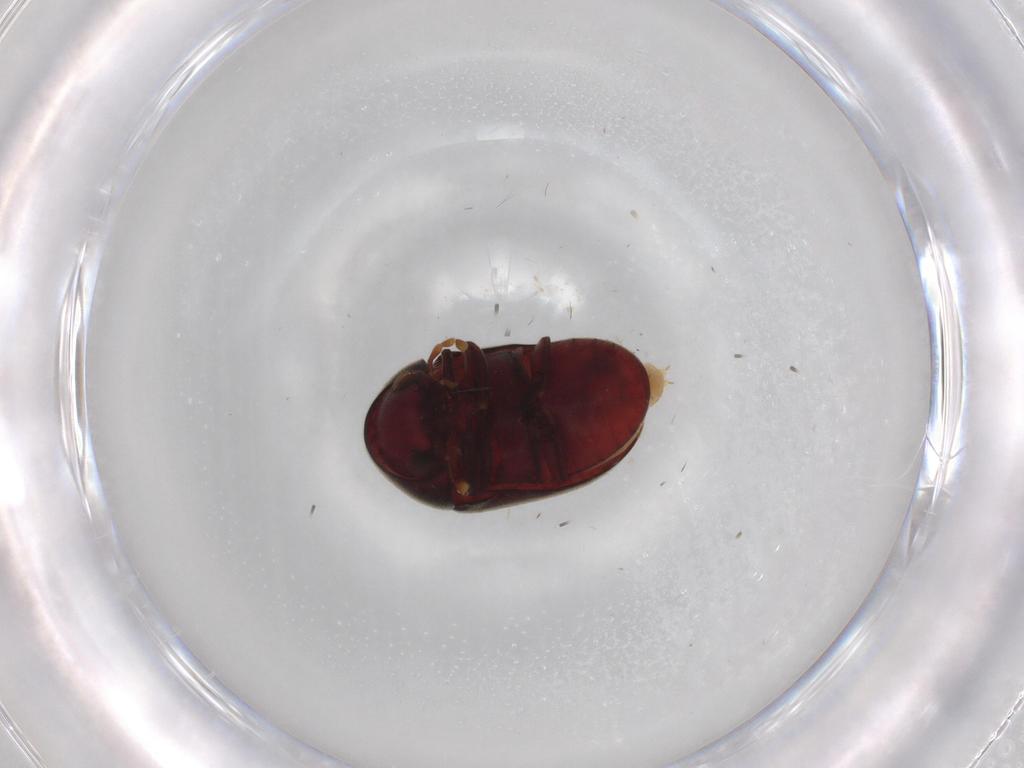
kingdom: Animalia
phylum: Arthropoda
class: Insecta
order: Coleoptera
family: Ptinidae
